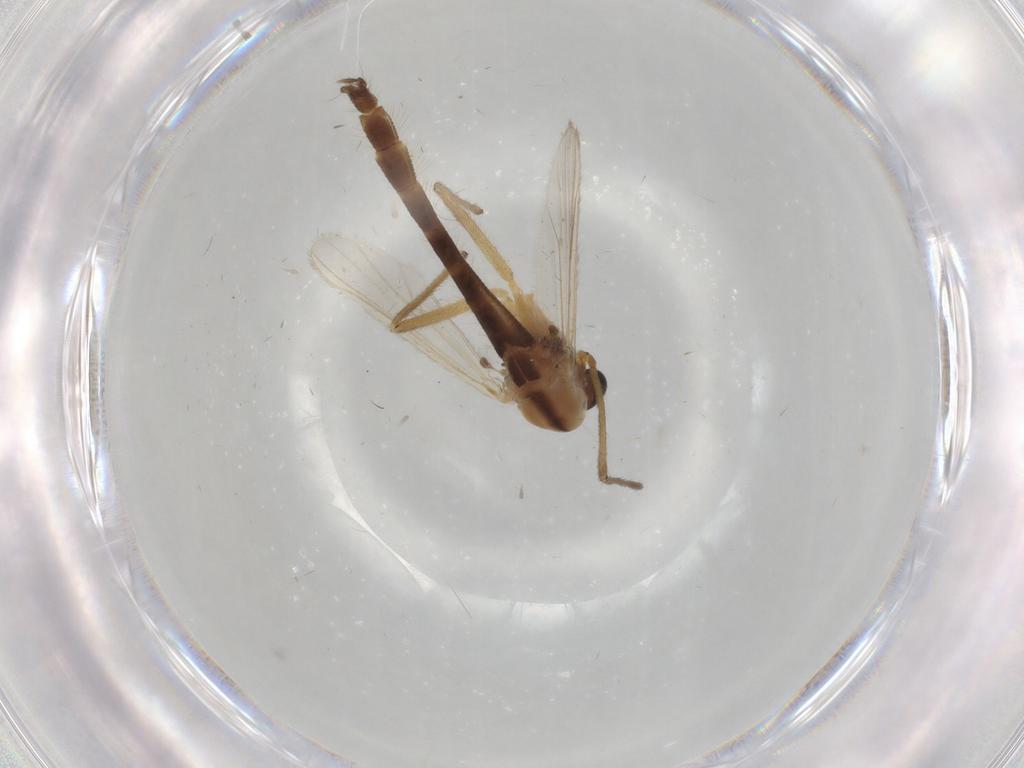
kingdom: Animalia
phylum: Arthropoda
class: Insecta
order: Diptera
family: Chironomidae
